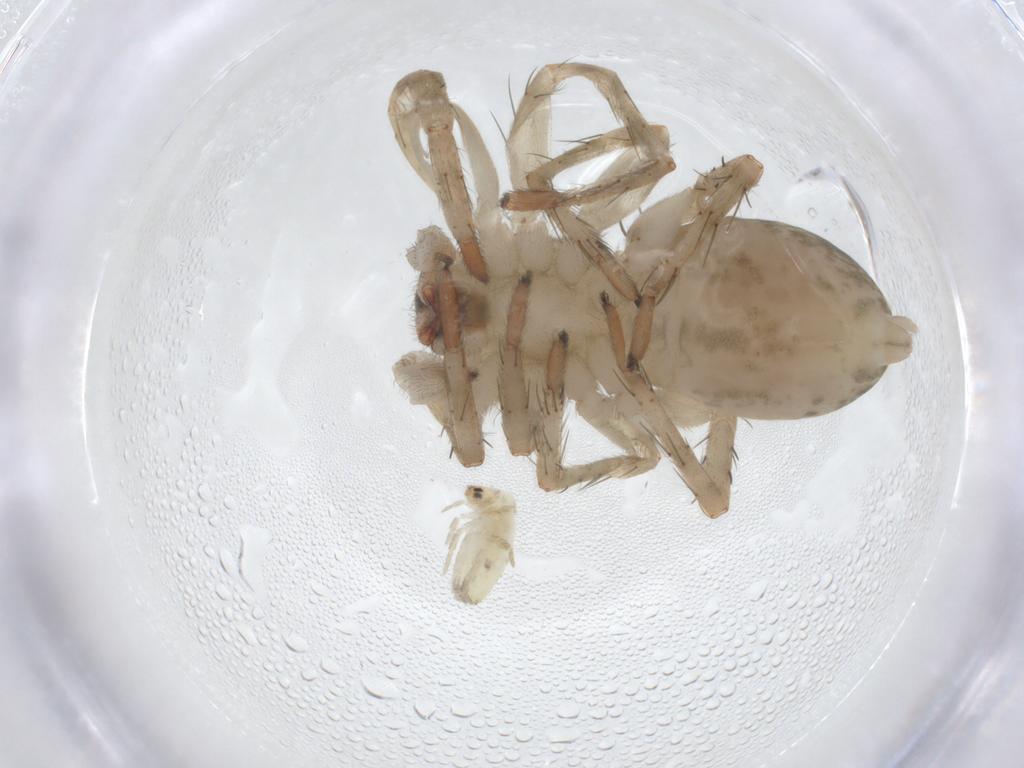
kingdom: Animalia
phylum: Arthropoda
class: Arachnida
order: Araneae
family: Anyphaenidae
